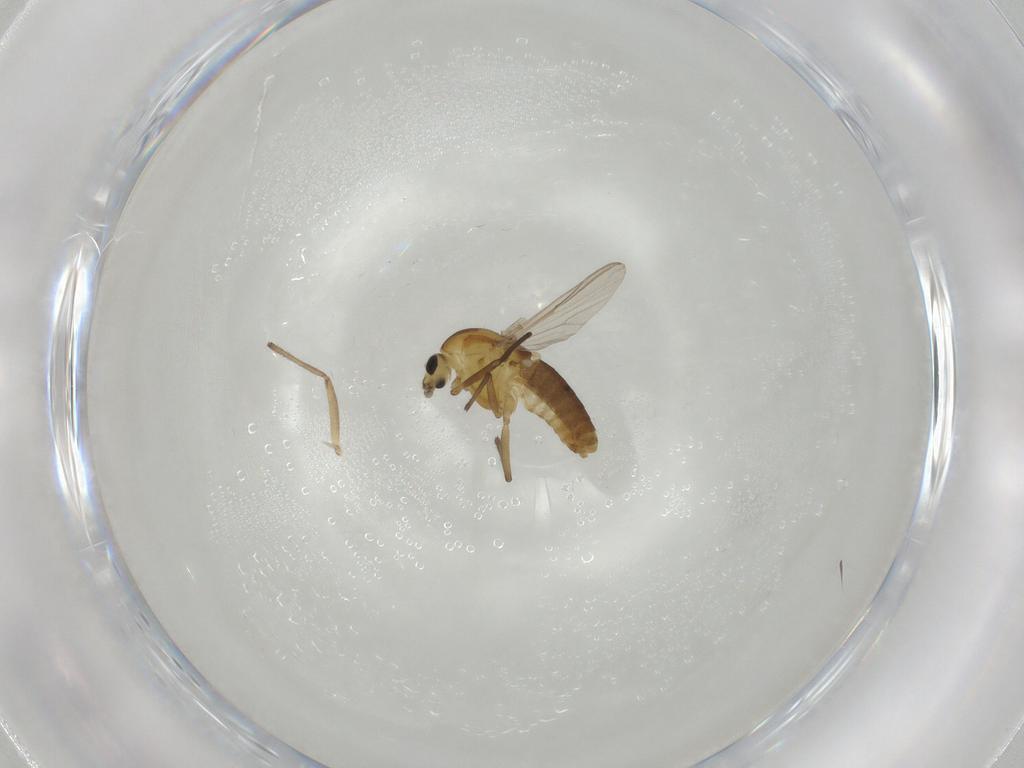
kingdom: Animalia
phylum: Arthropoda
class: Insecta
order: Diptera
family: Chironomidae
